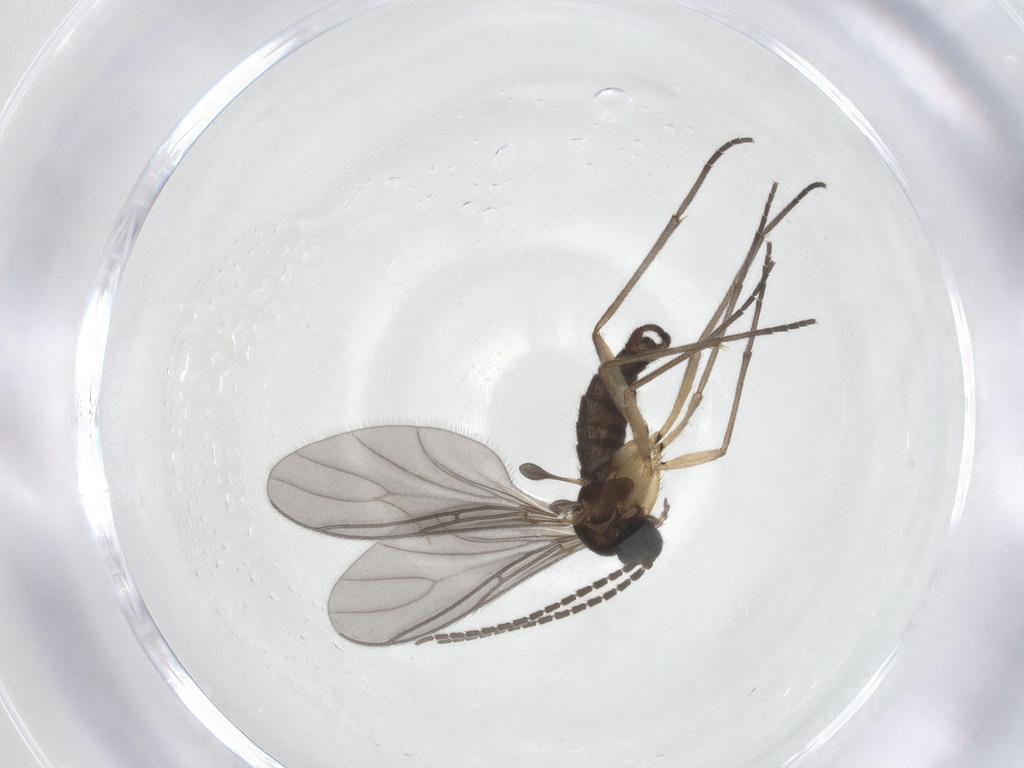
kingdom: Animalia
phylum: Arthropoda
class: Insecta
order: Diptera
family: Sciaridae
